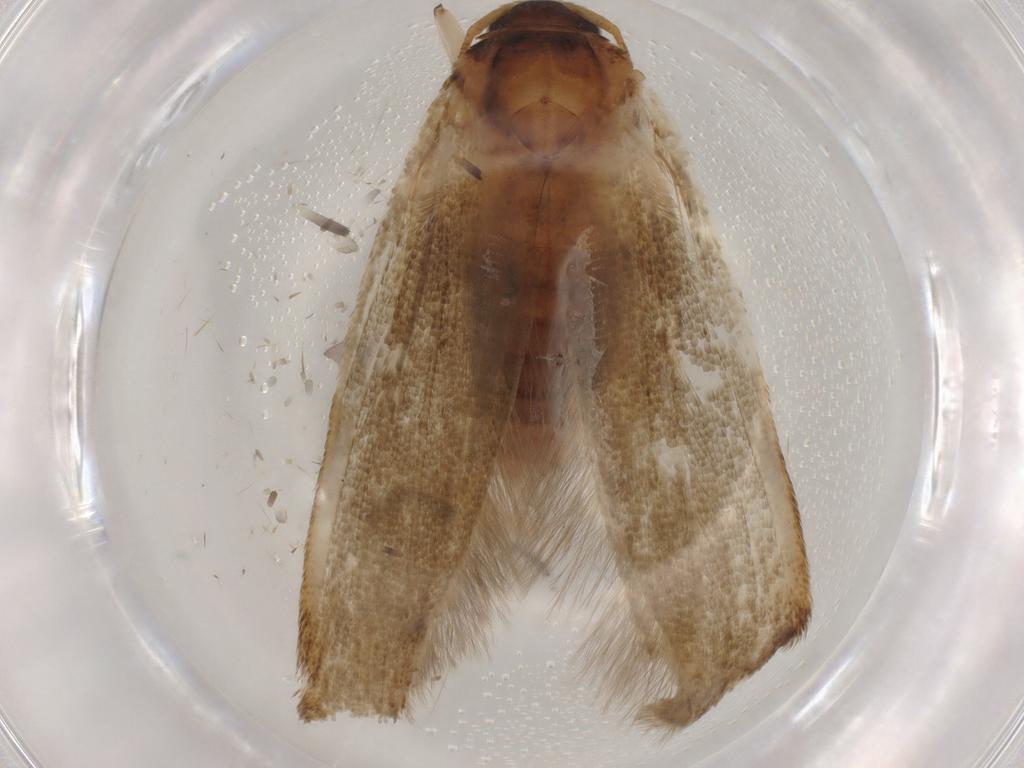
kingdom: Animalia
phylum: Arthropoda
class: Insecta
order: Lepidoptera
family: Blastobasidae
